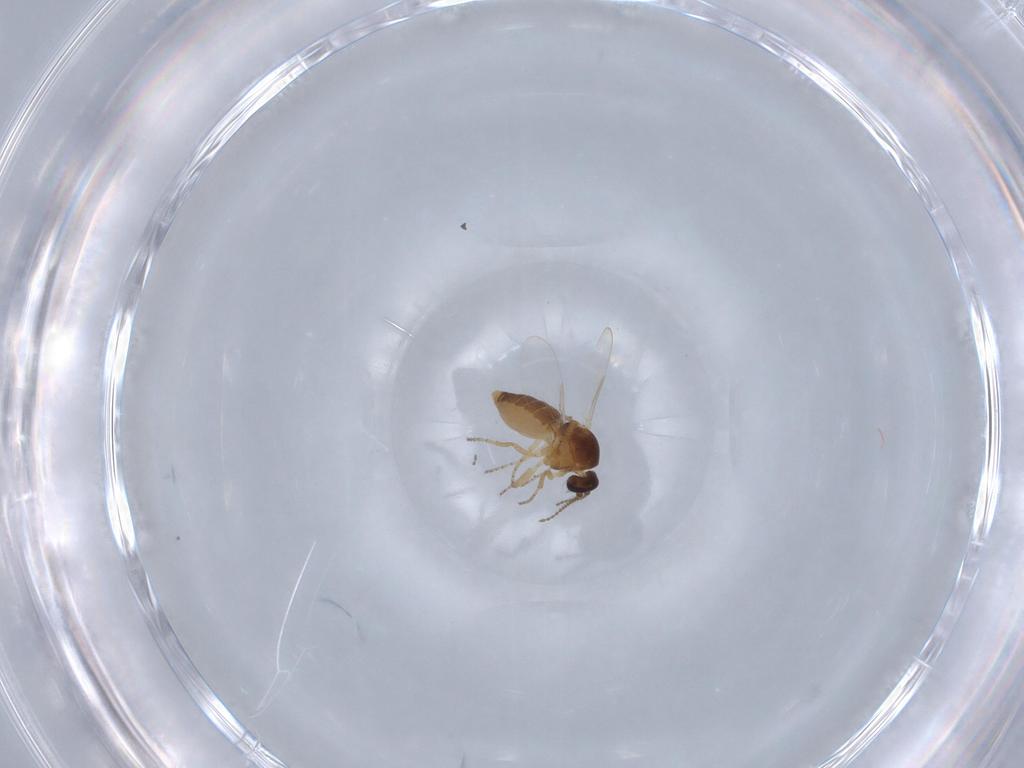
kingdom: Animalia
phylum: Arthropoda
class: Insecta
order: Diptera
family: Ceratopogonidae
